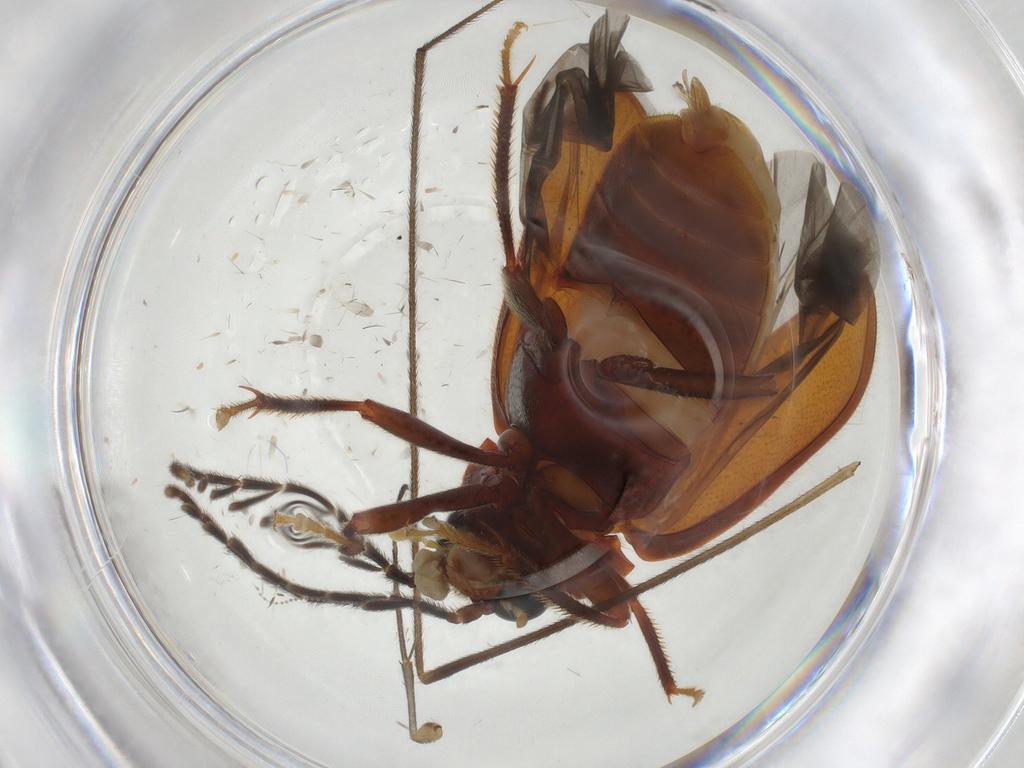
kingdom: Animalia
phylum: Arthropoda
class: Insecta
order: Coleoptera
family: Ptilodactylidae
